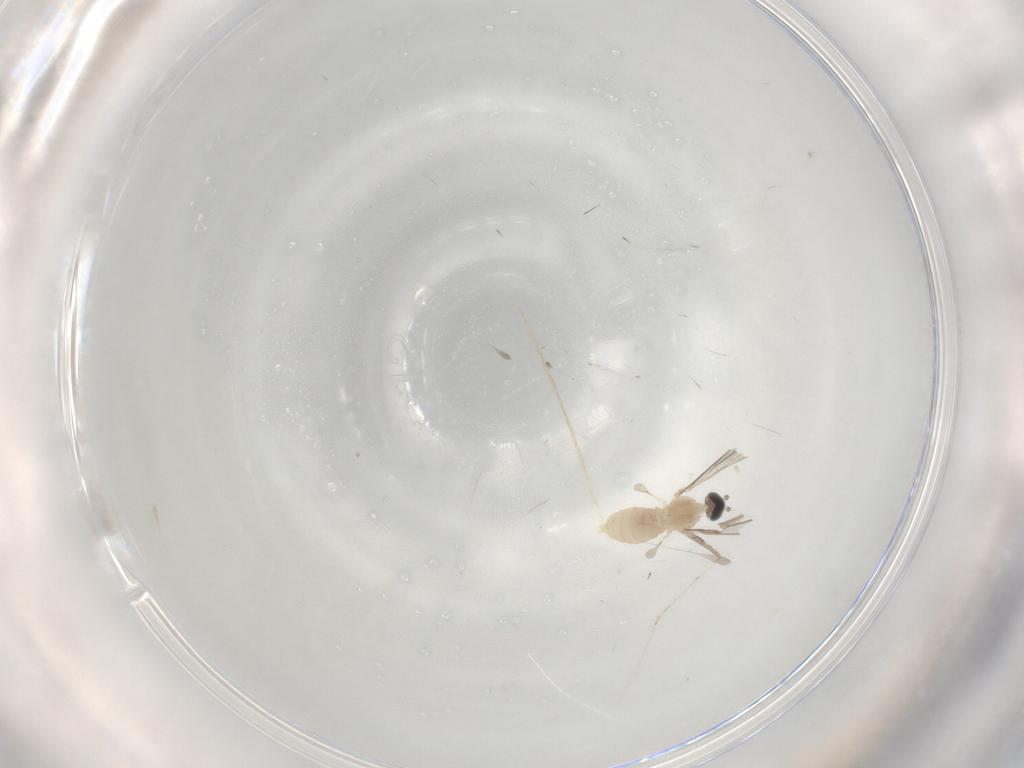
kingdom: Animalia
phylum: Arthropoda
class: Insecta
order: Diptera
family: Cecidomyiidae
